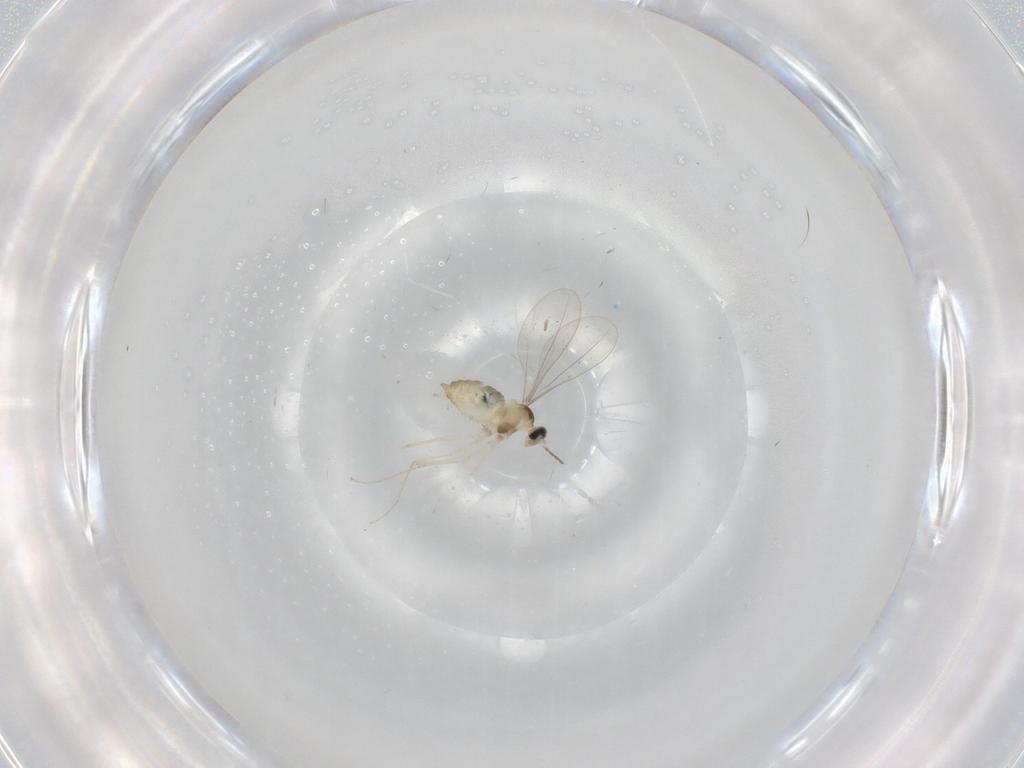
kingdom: Animalia
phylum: Arthropoda
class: Insecta
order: Diptera
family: Cecidomyiidae
